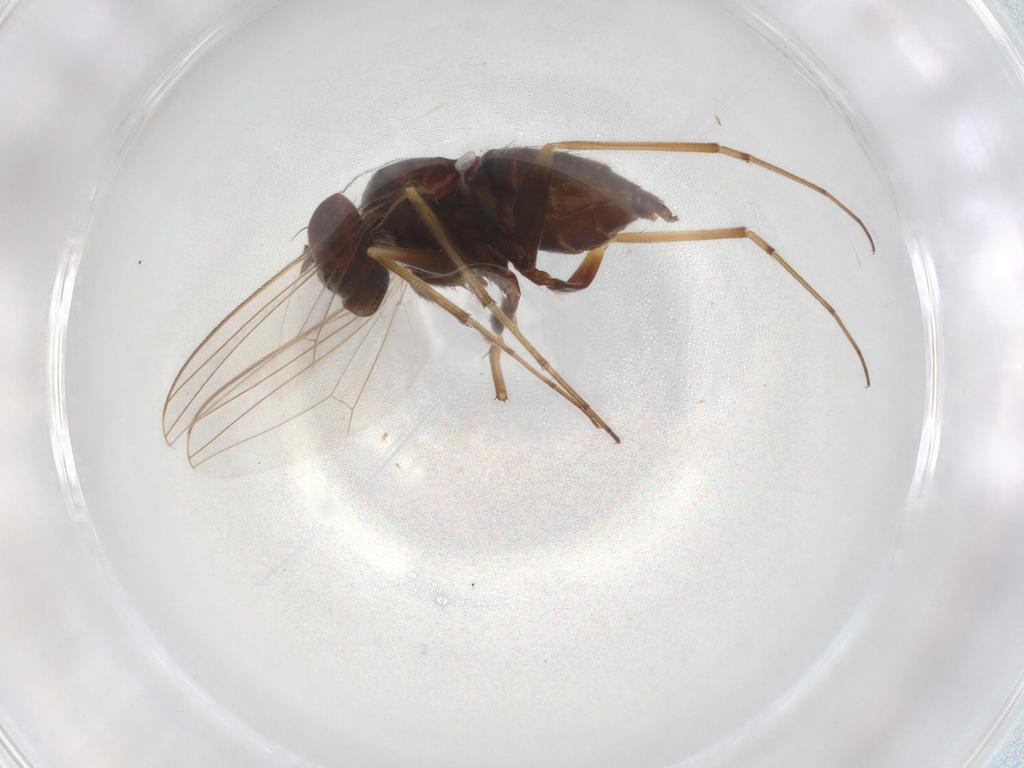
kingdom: Animalia
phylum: Arthropoda
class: Insecta
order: Diptera
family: Dolichopodidae
